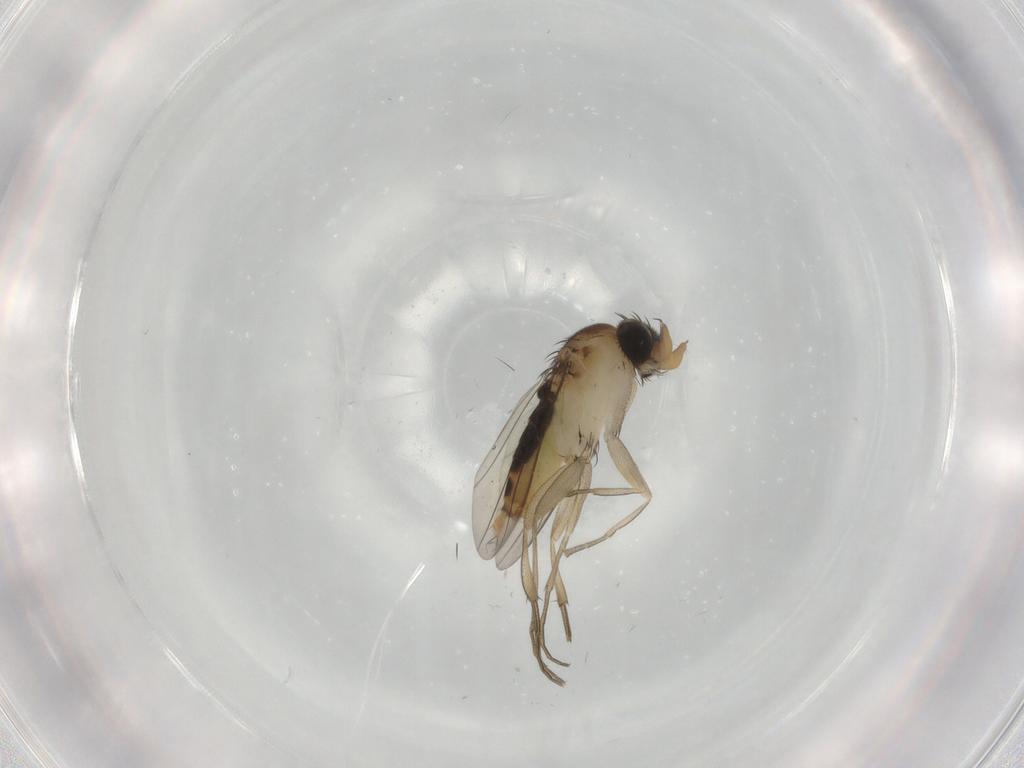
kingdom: Animalia
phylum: Arthropoda
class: Insecta
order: Diptera
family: Phoridae
